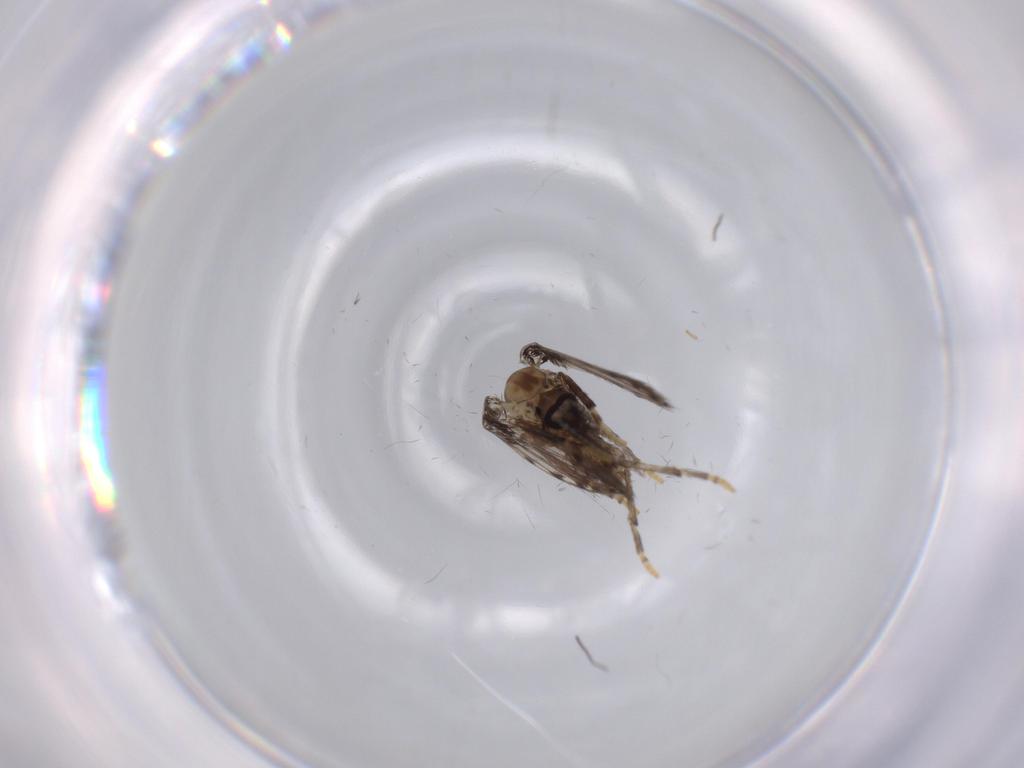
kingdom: Animalia
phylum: Arthropoda
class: Insecta
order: Diptera
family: Psychodidae
